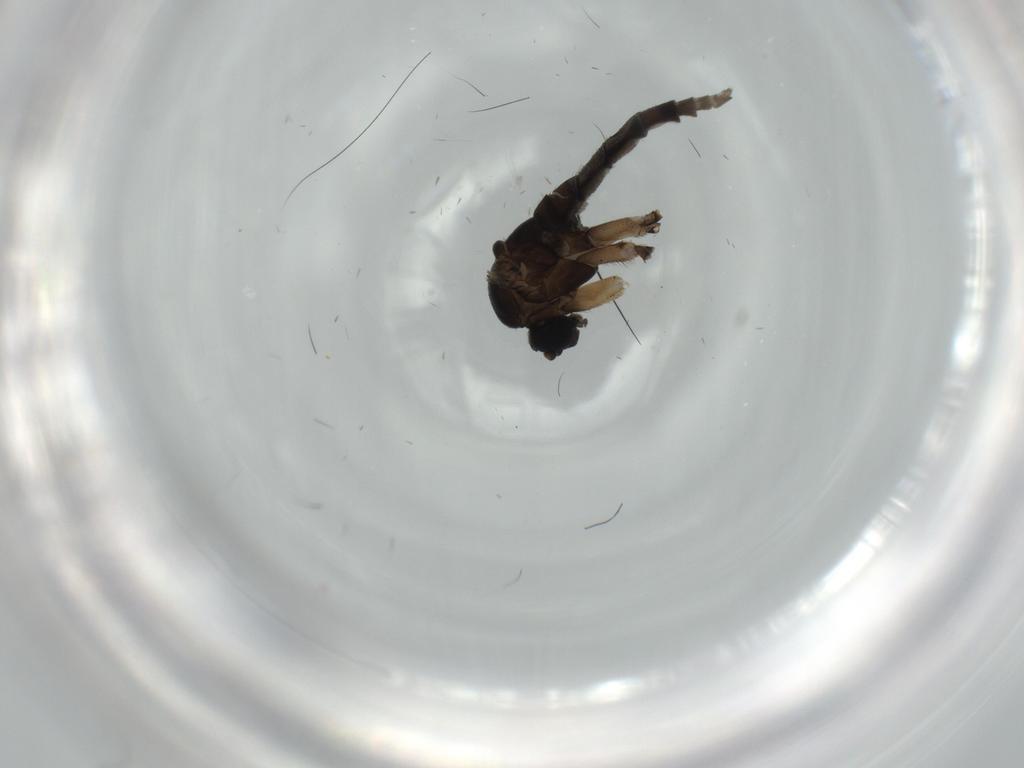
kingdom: Animalia
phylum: Arthropoda
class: Insecta
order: Diptera
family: Sciaridae
